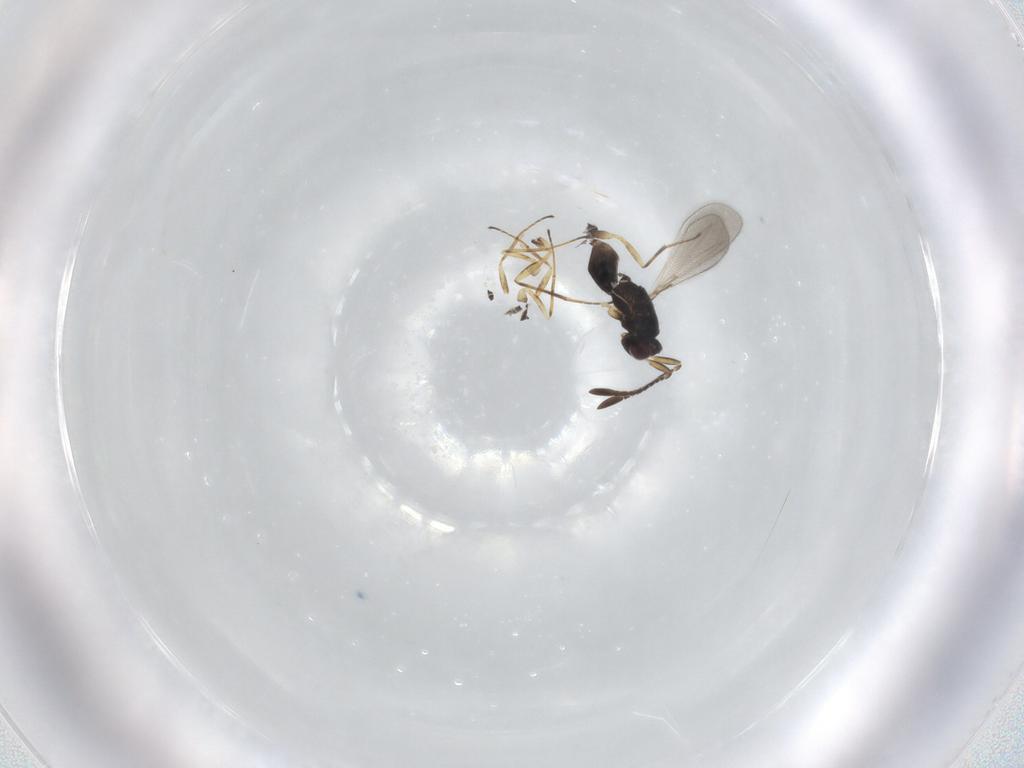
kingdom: Animalia
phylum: Arthropoda
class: Insecta
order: Hymenoptera
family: Mymaridae
